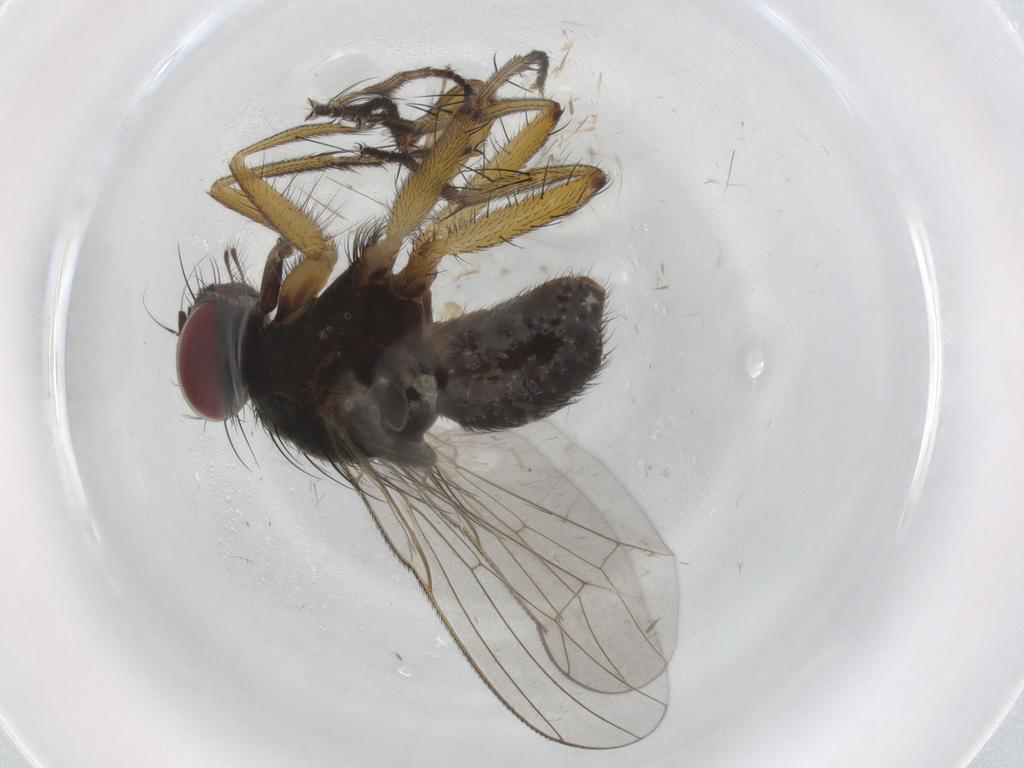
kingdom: Animalia
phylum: Arthropoda
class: Insecta
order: Diptera
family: Cecidomyiidae
